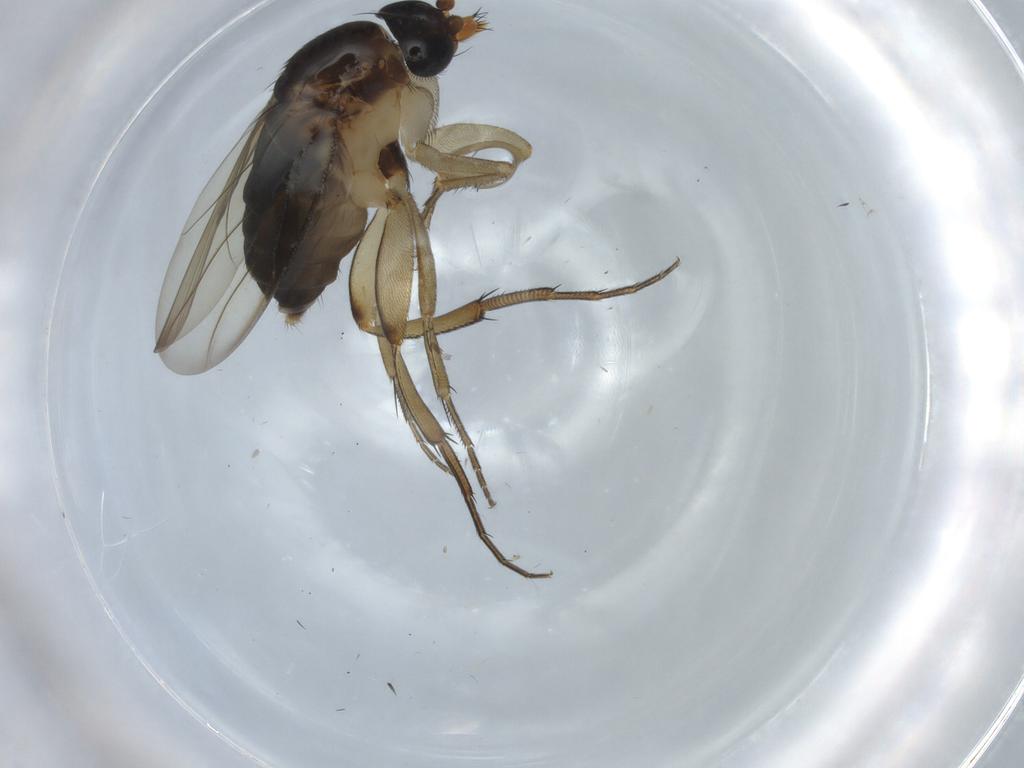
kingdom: Animalia
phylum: Arthropoda
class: Insecta
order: Diptera
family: Phoridae
